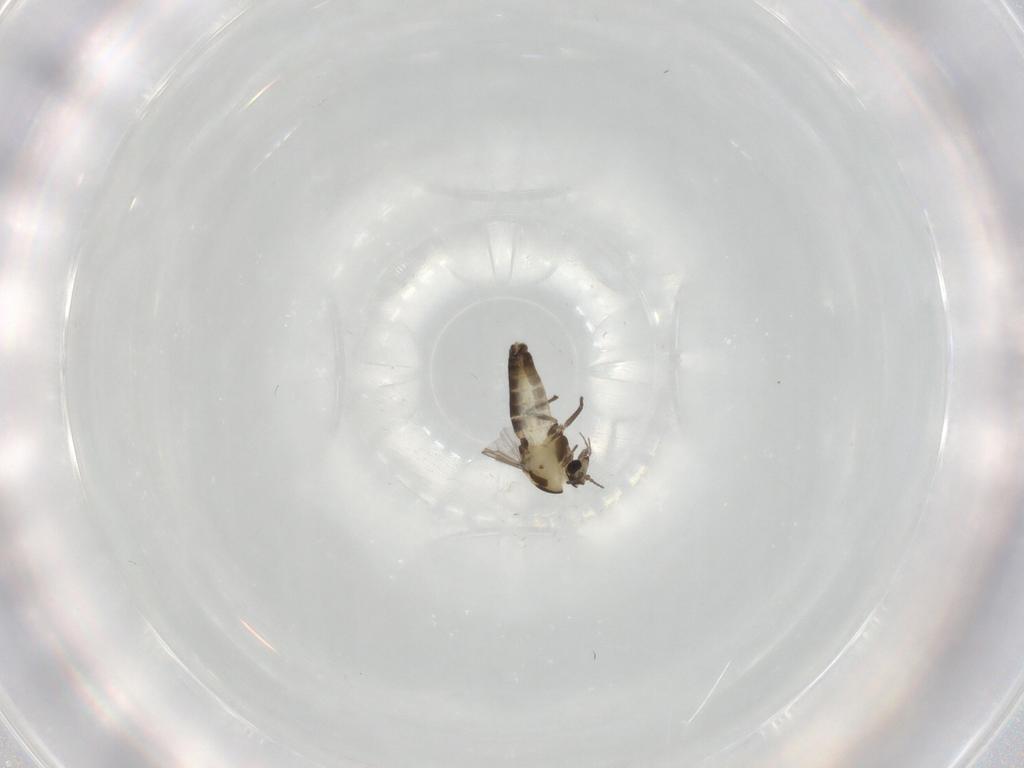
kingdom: Animalia
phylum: Arthropoda
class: Insecta
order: Diptera
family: Chironomidae
